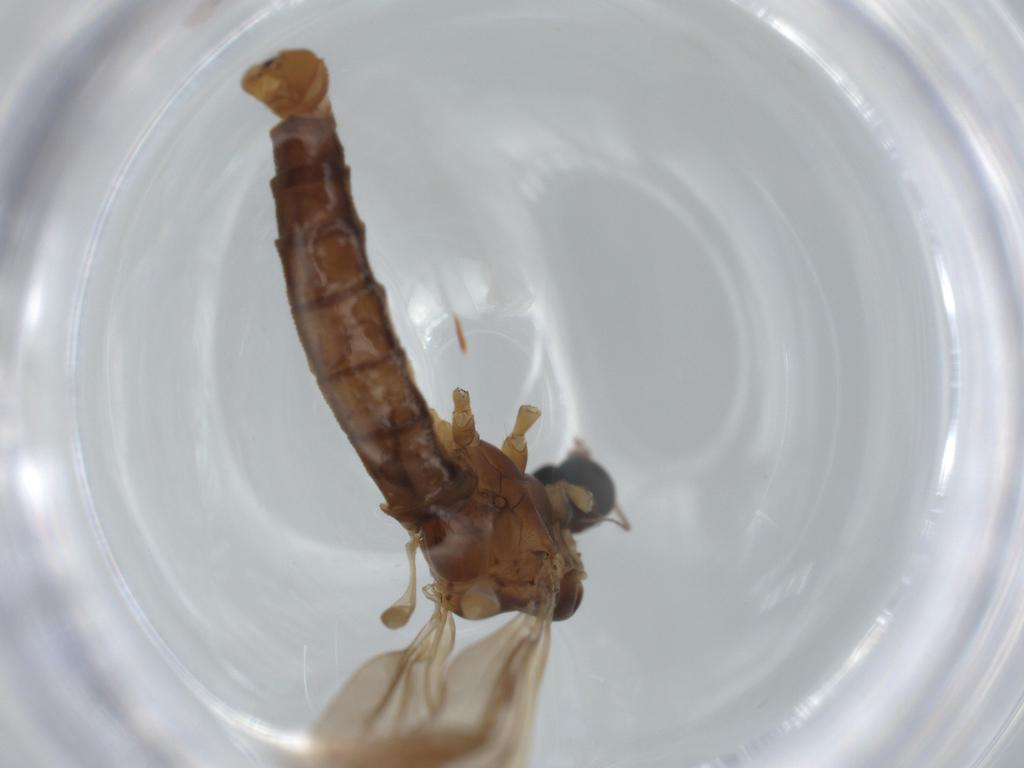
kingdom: Animalia
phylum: Arthropoda
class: Insecta
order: Diptera
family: Limoniidae
